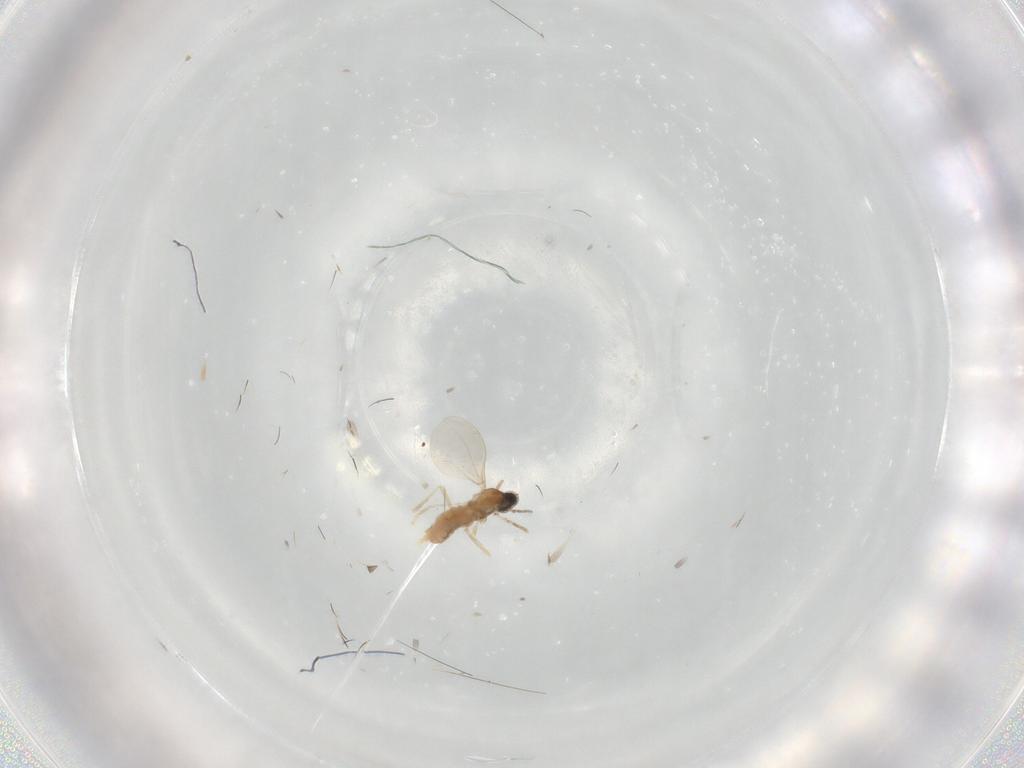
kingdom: Animalia
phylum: Arthropoda
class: Insecta
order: Diptera
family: Cecidomyiidae
